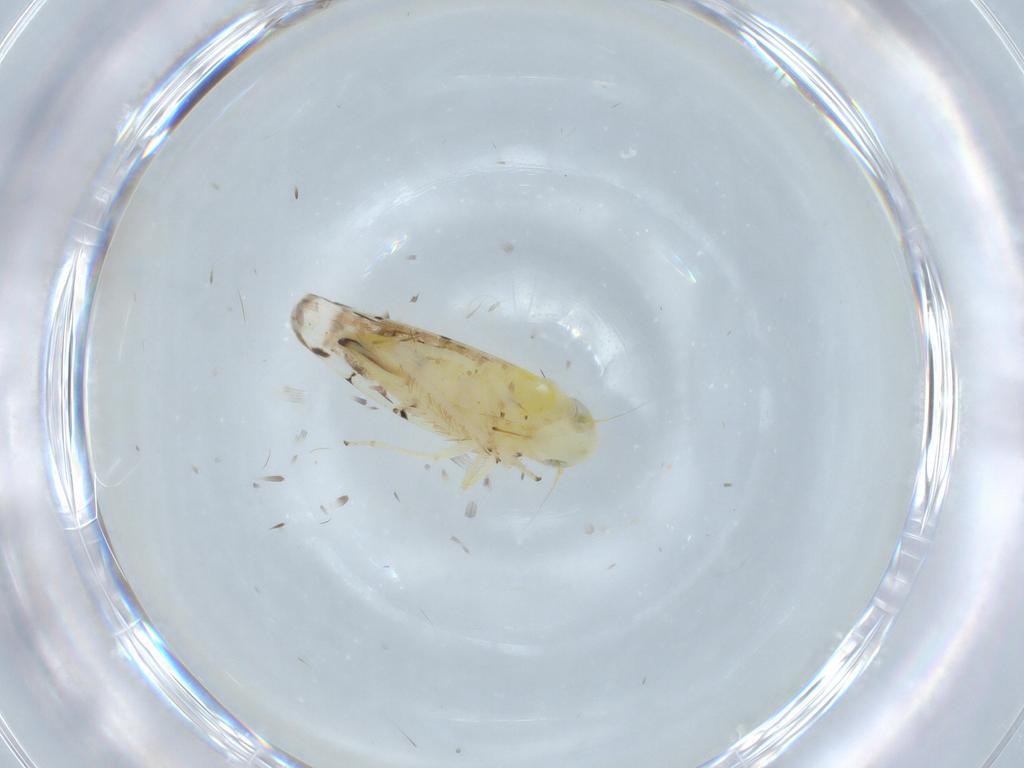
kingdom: Animalia
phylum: Arthropoda
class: Insecta
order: Hemiptera
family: Cicadellidae
